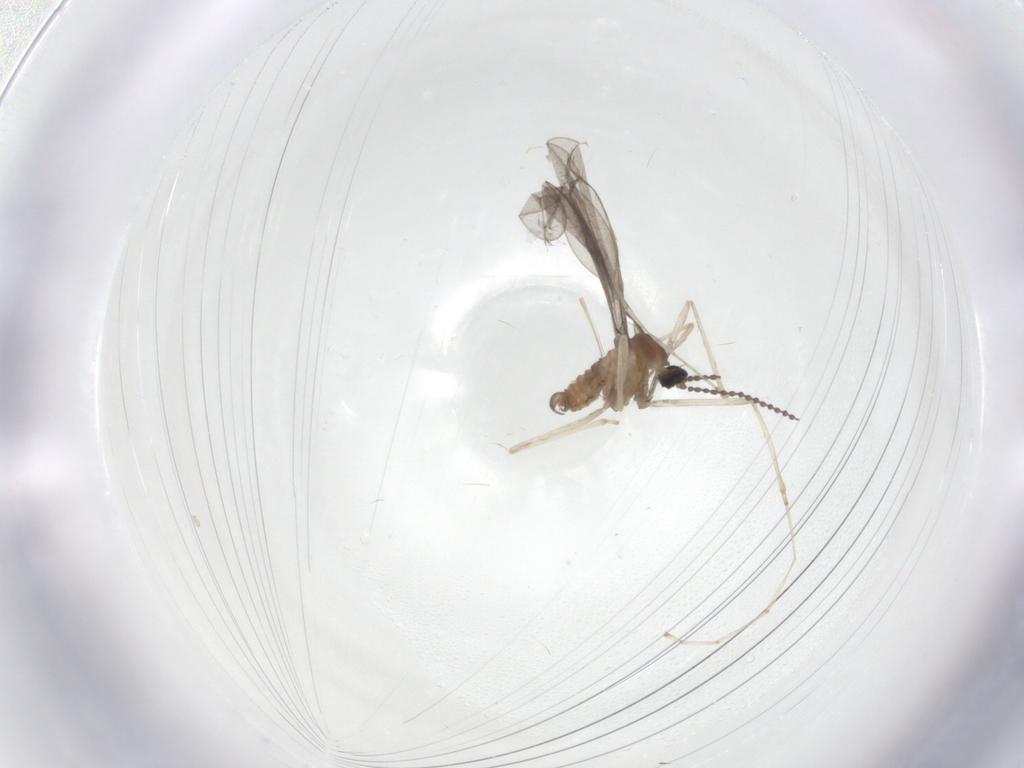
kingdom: Animalia
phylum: Arthropoda
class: Insecta
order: Diptera
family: Cecidomyiidae
